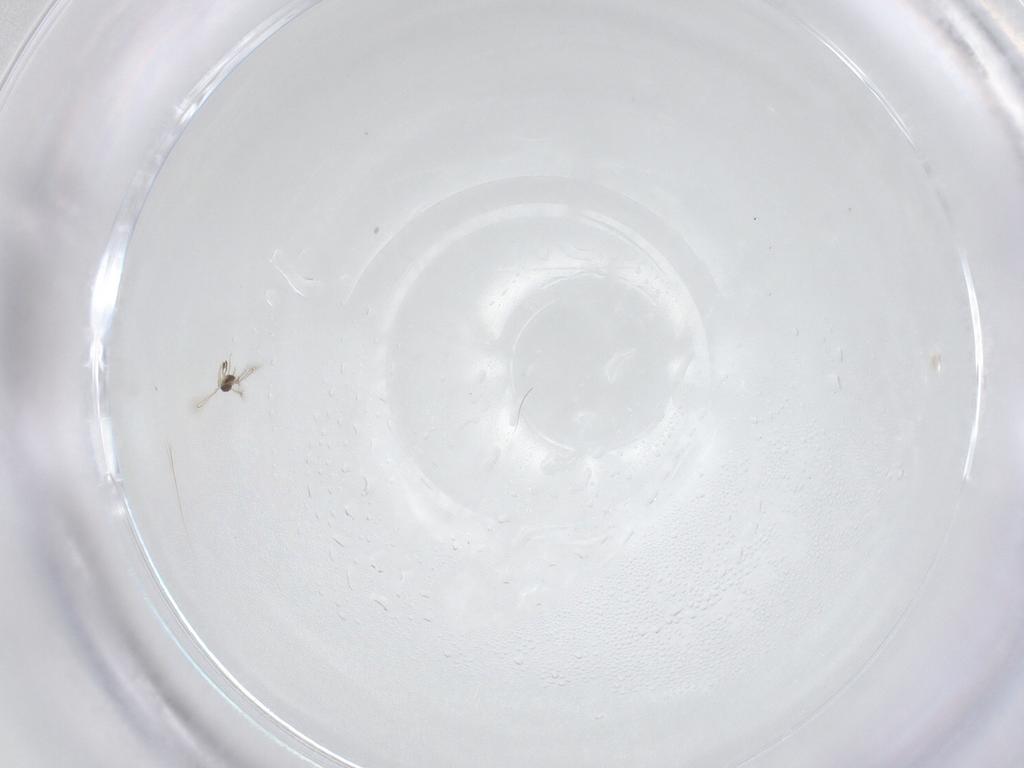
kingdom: Animalia
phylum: Arthropoda
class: Insecta
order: Hymenoptera
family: Mymaridae
